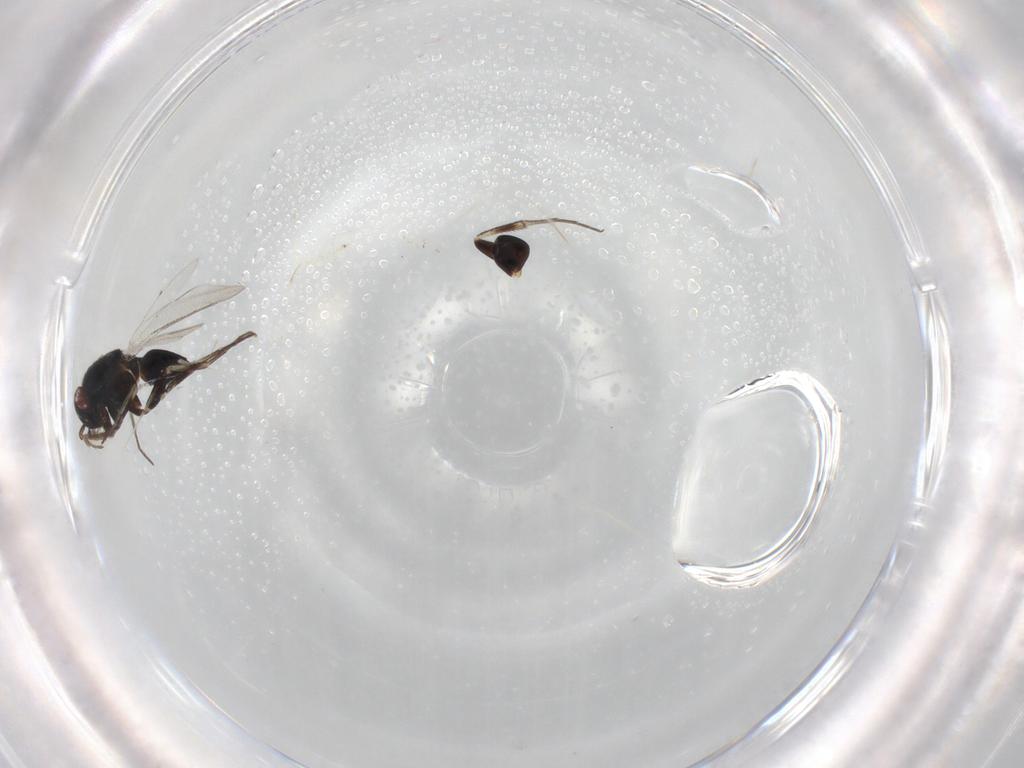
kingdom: Animalia
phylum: Arthropoda
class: Insecta
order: Hymenoptera
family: Eulophidae
